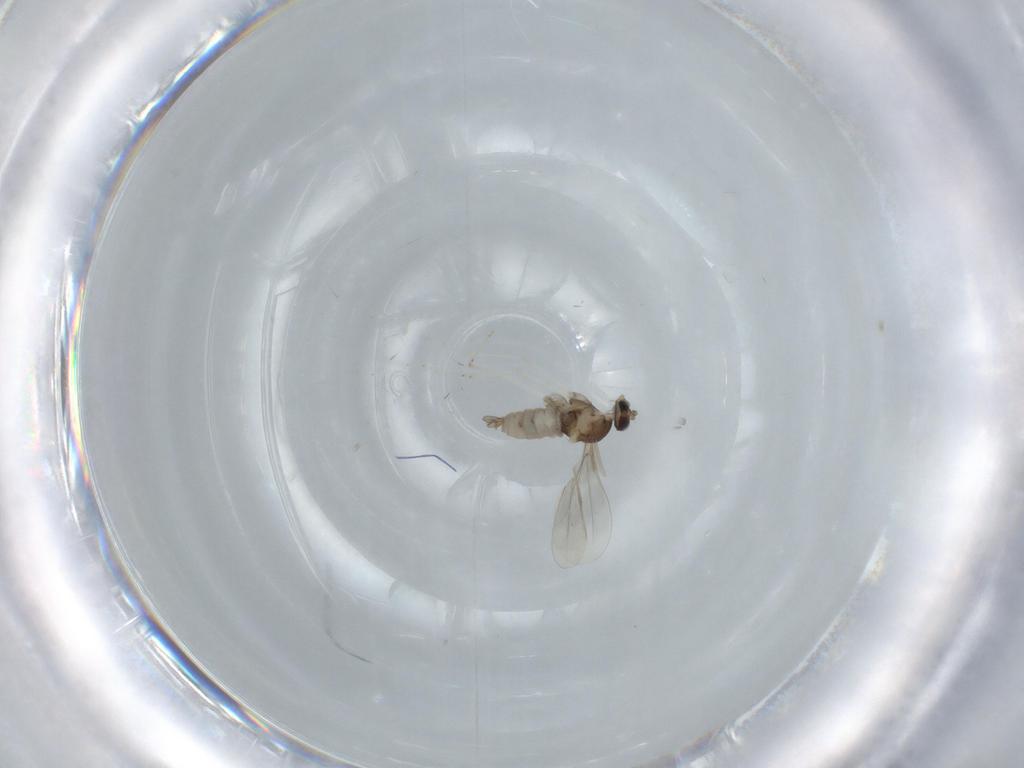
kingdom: Animalia
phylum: Arthropoda
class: Insecta
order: Diptera
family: Cecidomyiidae
